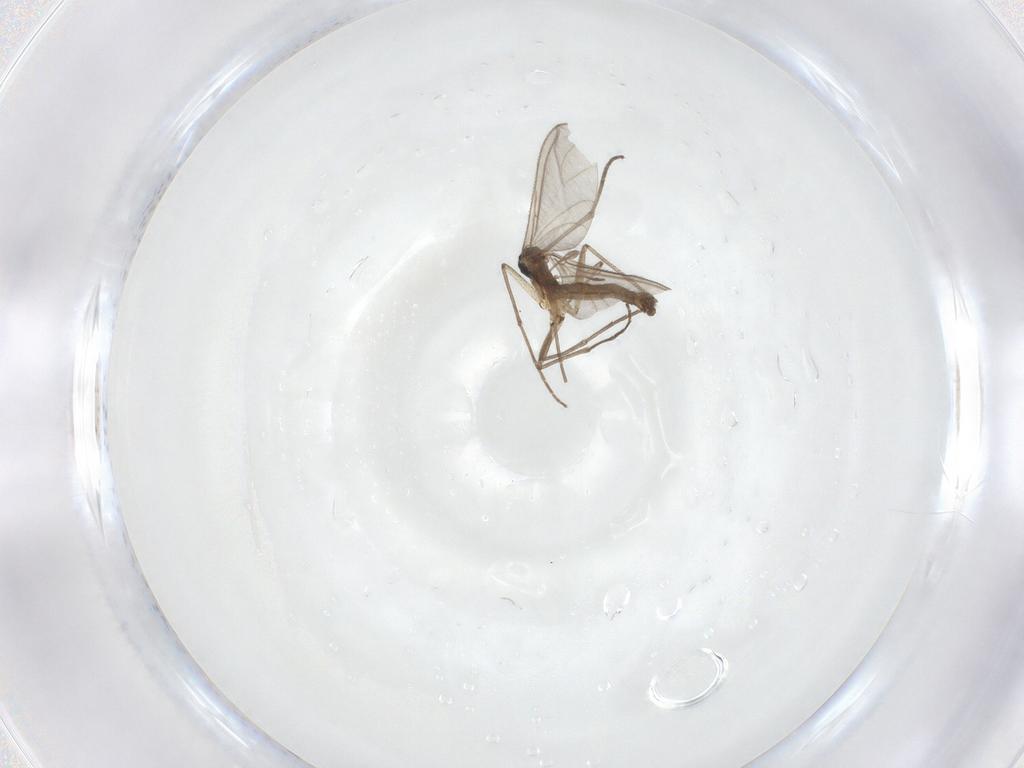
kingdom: Animalia
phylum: Arthropoda
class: Insecta
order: Diptera
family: Sciaridae
